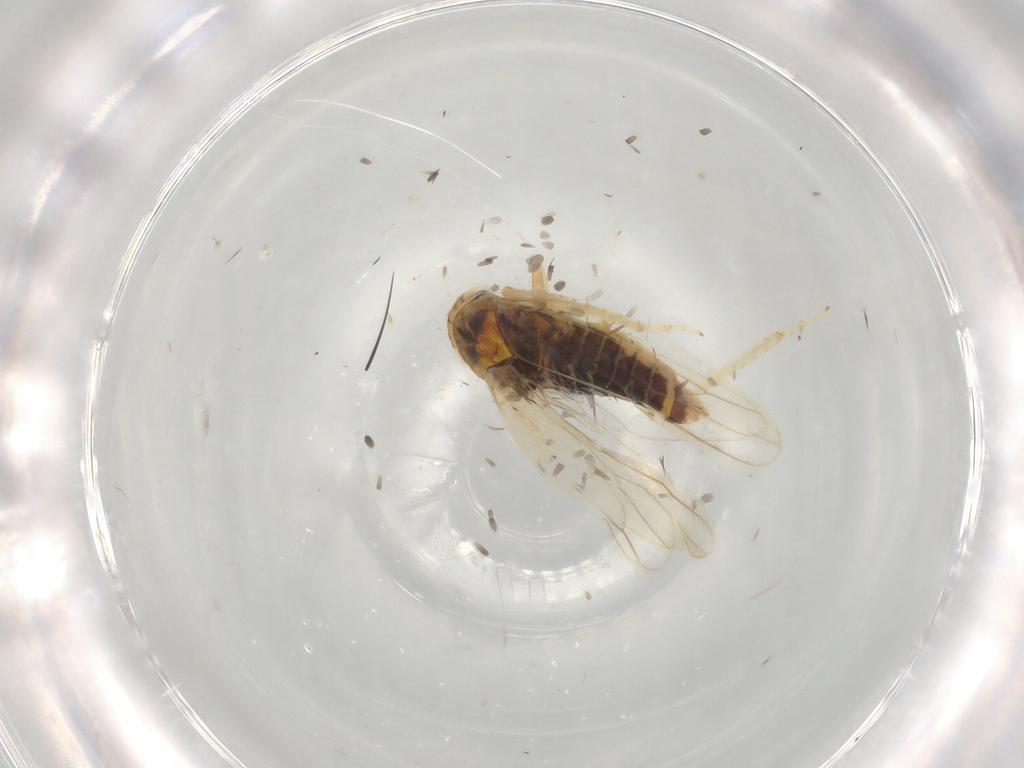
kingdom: Animalia
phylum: Arthropoda
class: Insecta
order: Hemiptera
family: Cicadellidae
